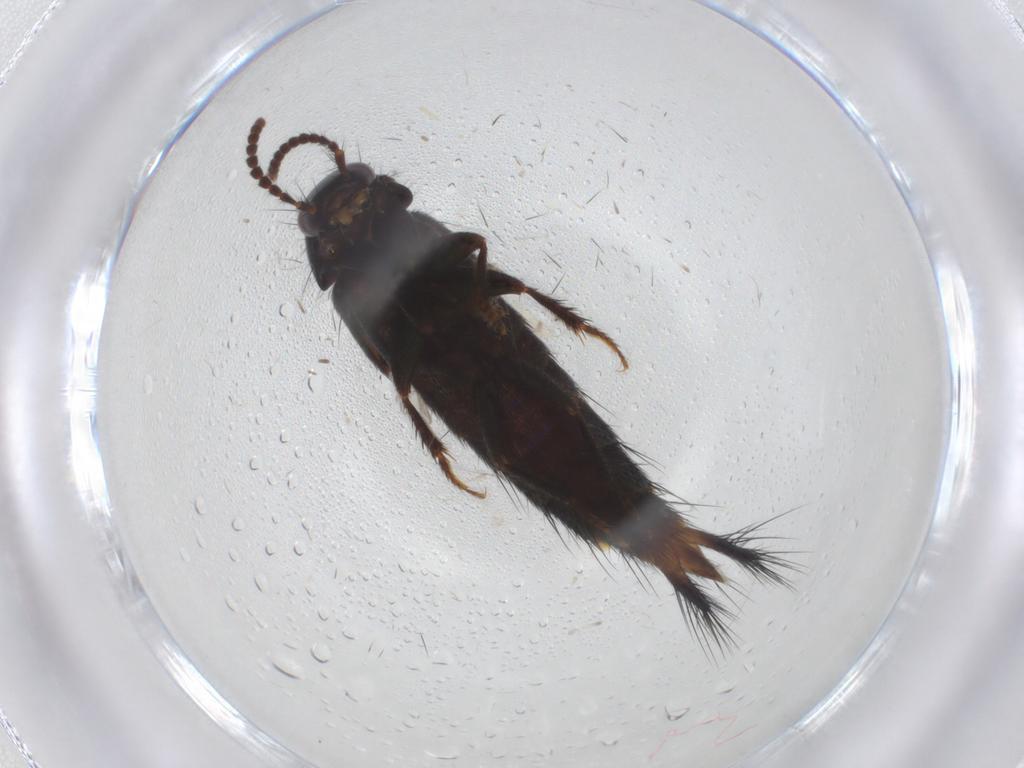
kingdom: Animalia
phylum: Arthropoda
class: Insecta
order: Coleoptera
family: Staphylinidae
